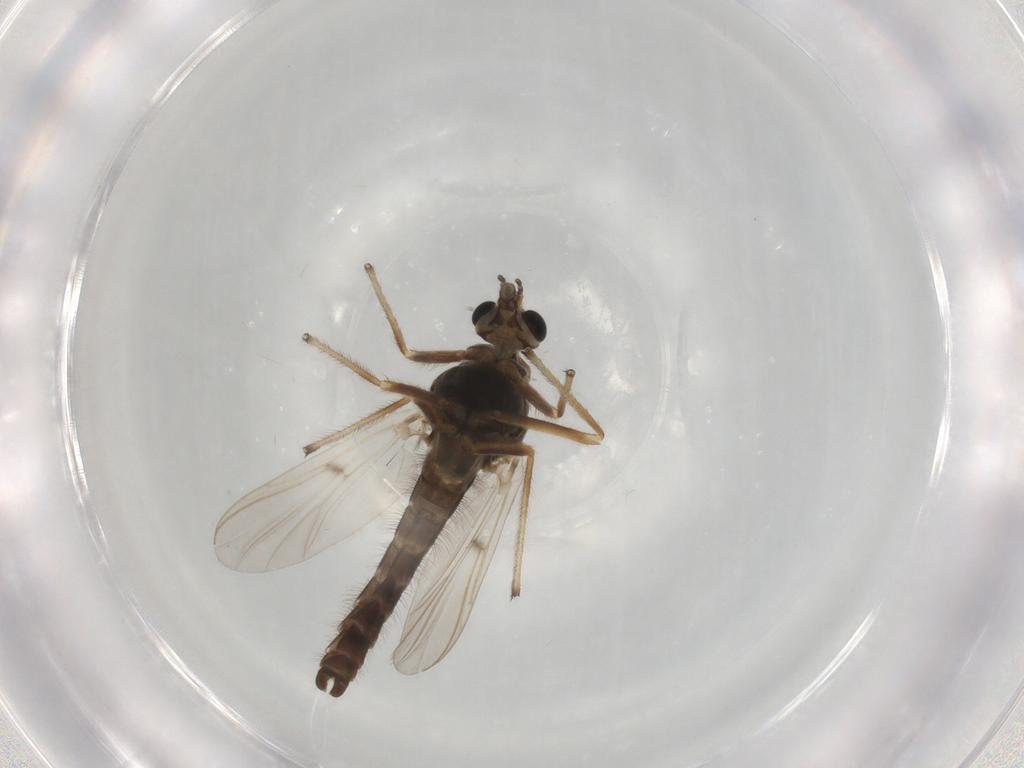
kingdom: Animalia
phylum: Arthropoda
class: Insecta
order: Diptera
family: Chironomidae
